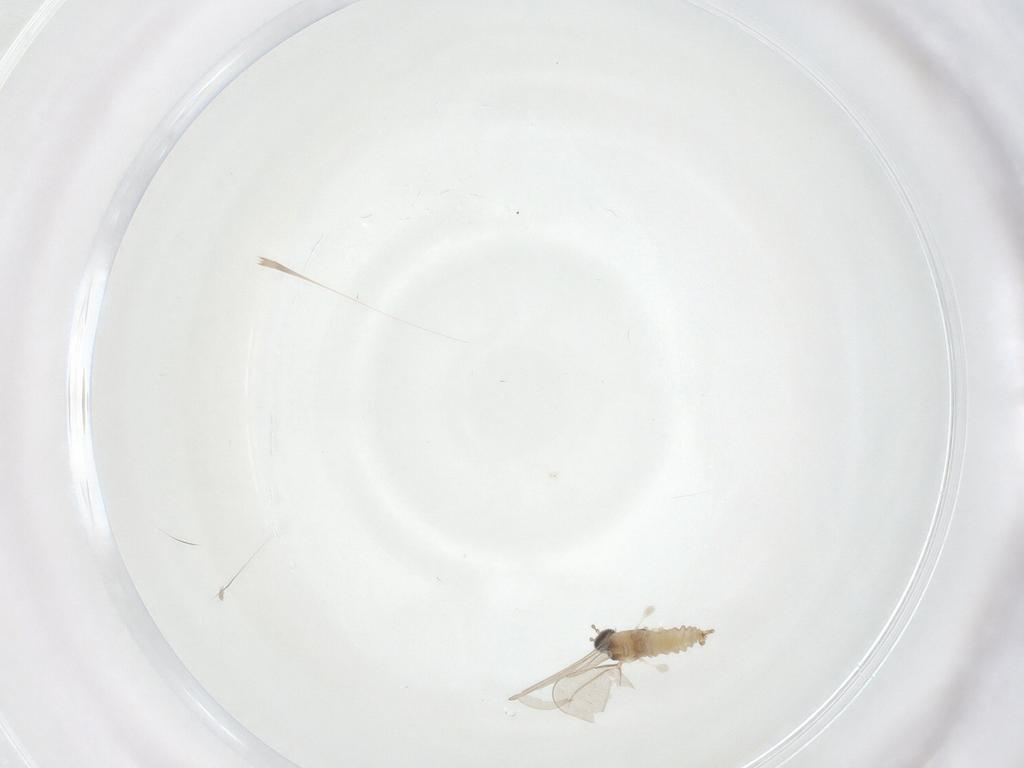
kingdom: Animalia
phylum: Arthropoda
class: Insecta
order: Diptera
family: Cecidomyiidae
